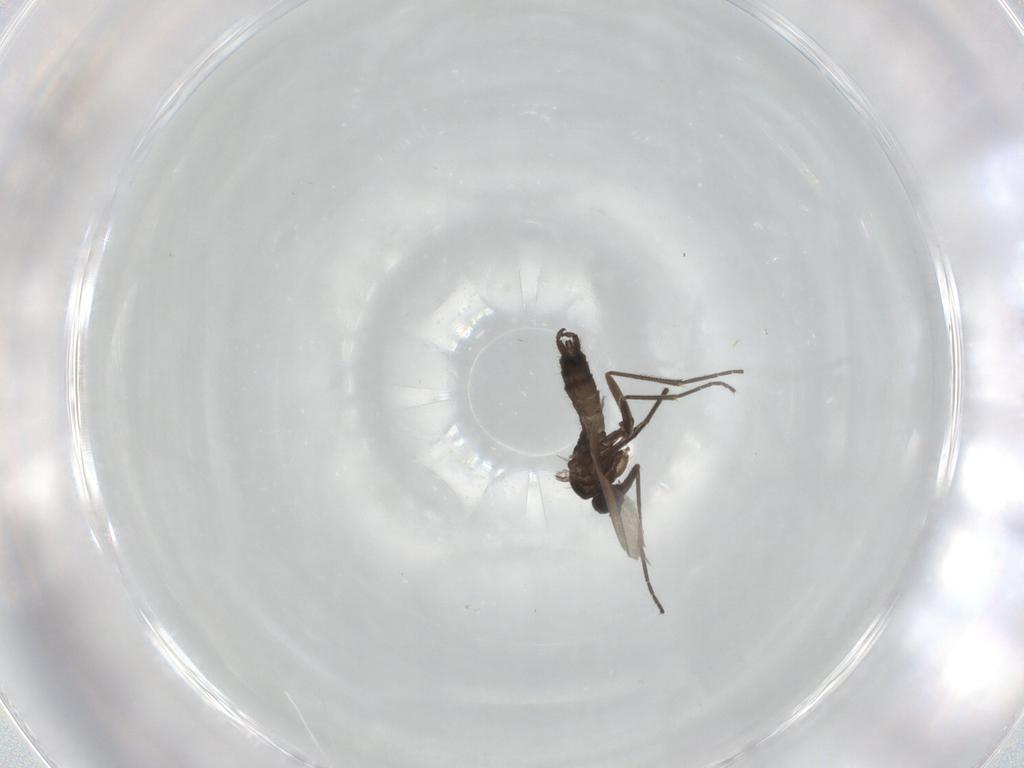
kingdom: Animalia
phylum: Arthropoda
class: Insecta
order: Diptera
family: Sciaridae
